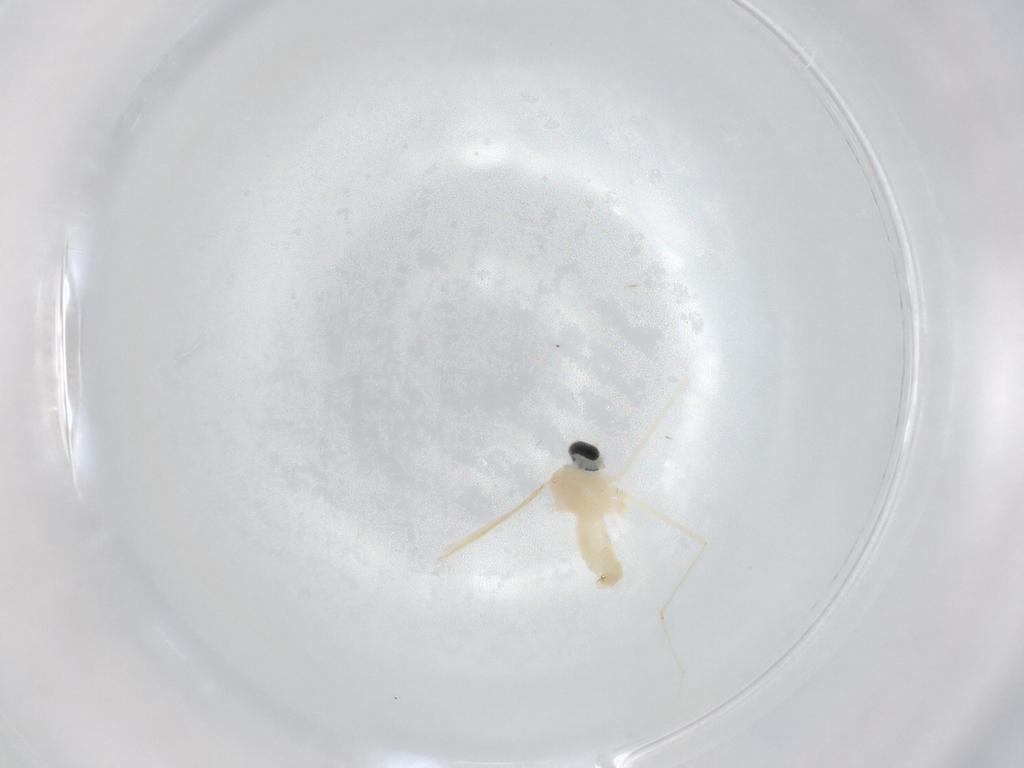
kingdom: Animalia
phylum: Arthropoda
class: Insecta
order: Diptera
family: Cecidomyiidae
